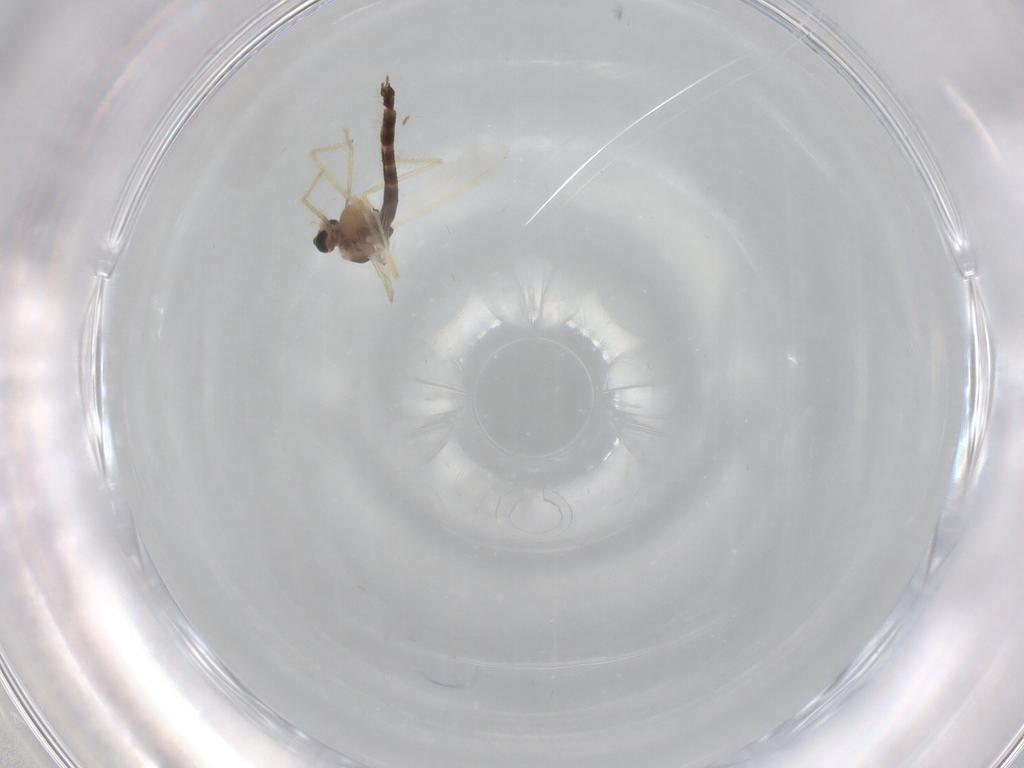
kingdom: Animalia
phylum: Arthropoda
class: Insecta
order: Diptera
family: Chironomidae
